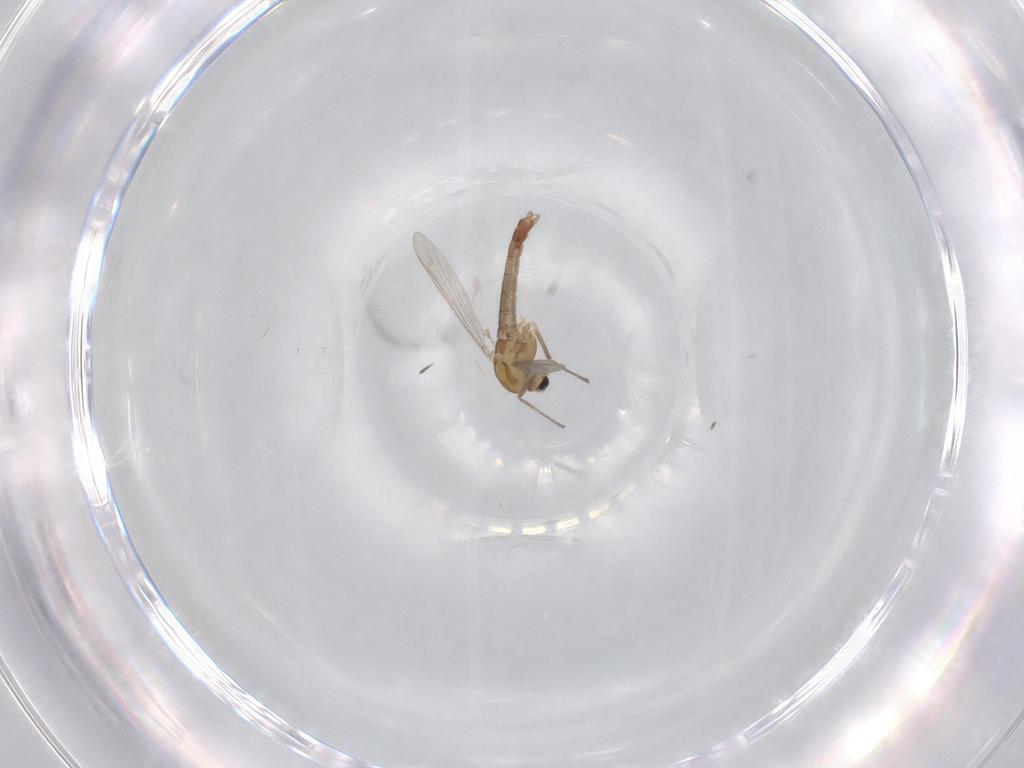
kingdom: Animalia
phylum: Arthropoda
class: Insecta
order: Diptera
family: Chironomidae
